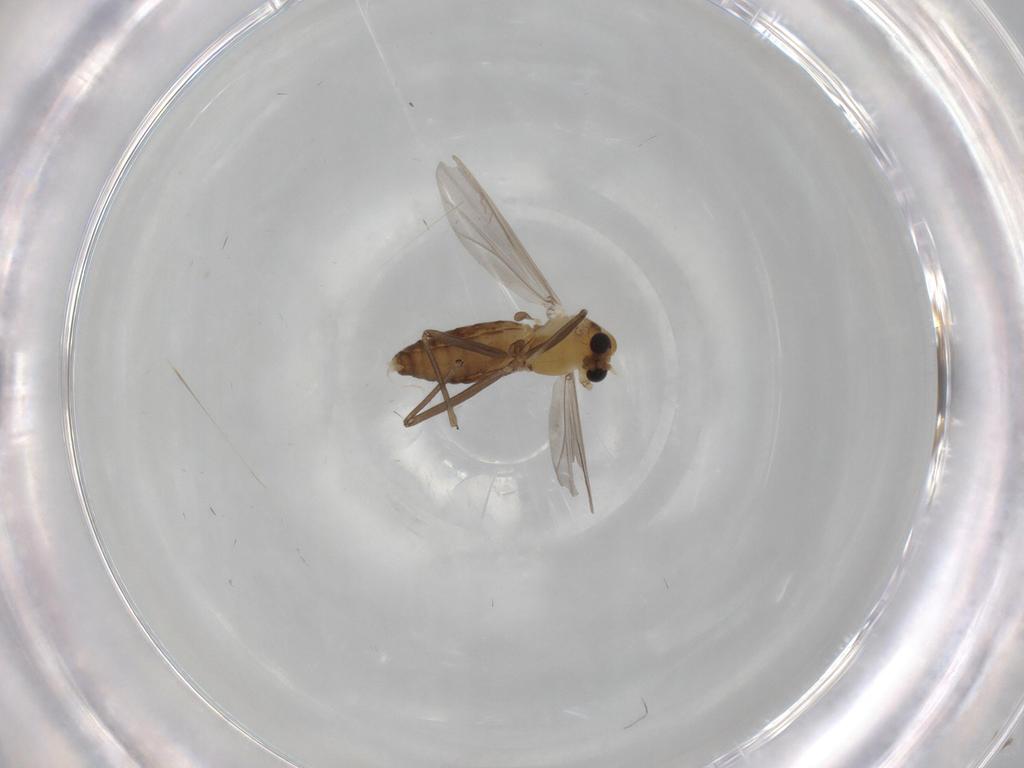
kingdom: Animalia
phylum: Arthropoda
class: Insecta
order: Diptera
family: Chironomidae
